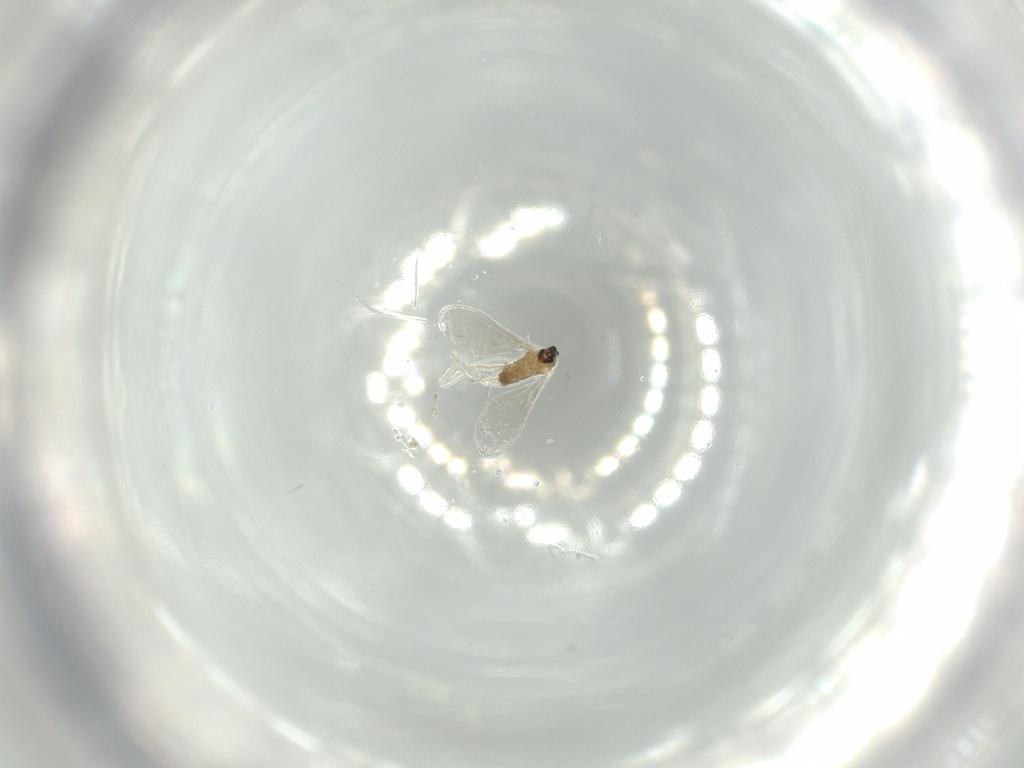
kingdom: Animalia
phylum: Arthropoda
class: Insecta
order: Diptera
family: Cecidomyiidae
